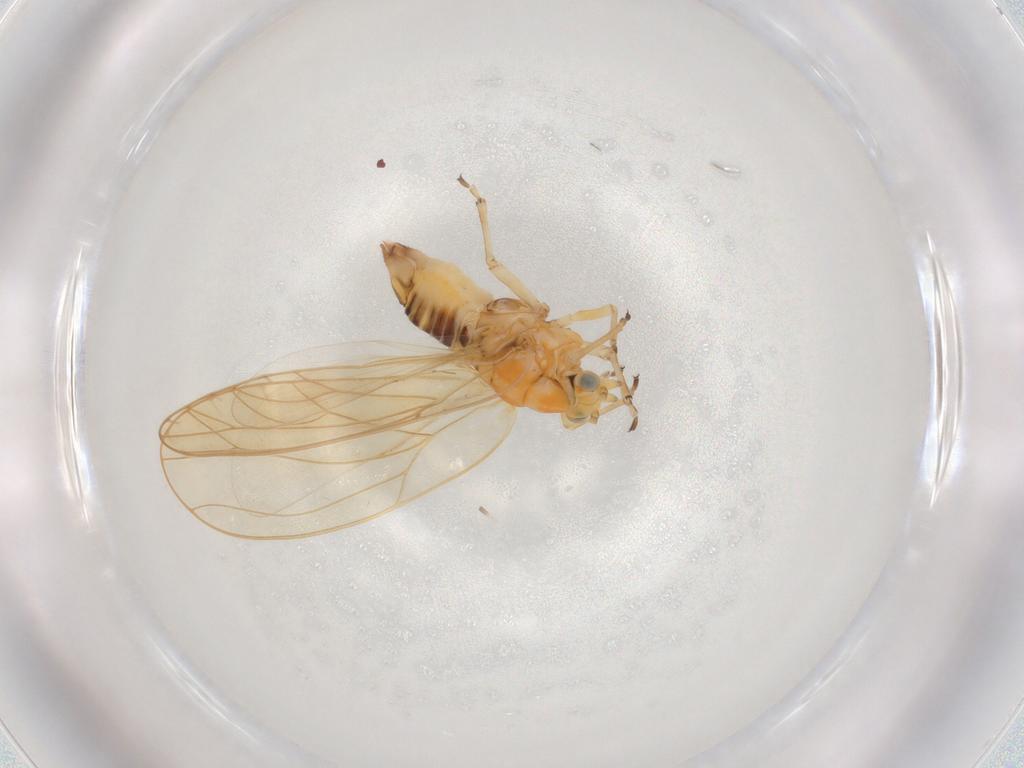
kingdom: Animalia
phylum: Arthropoda
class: Insecta
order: Hemiptera
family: Triozidae
